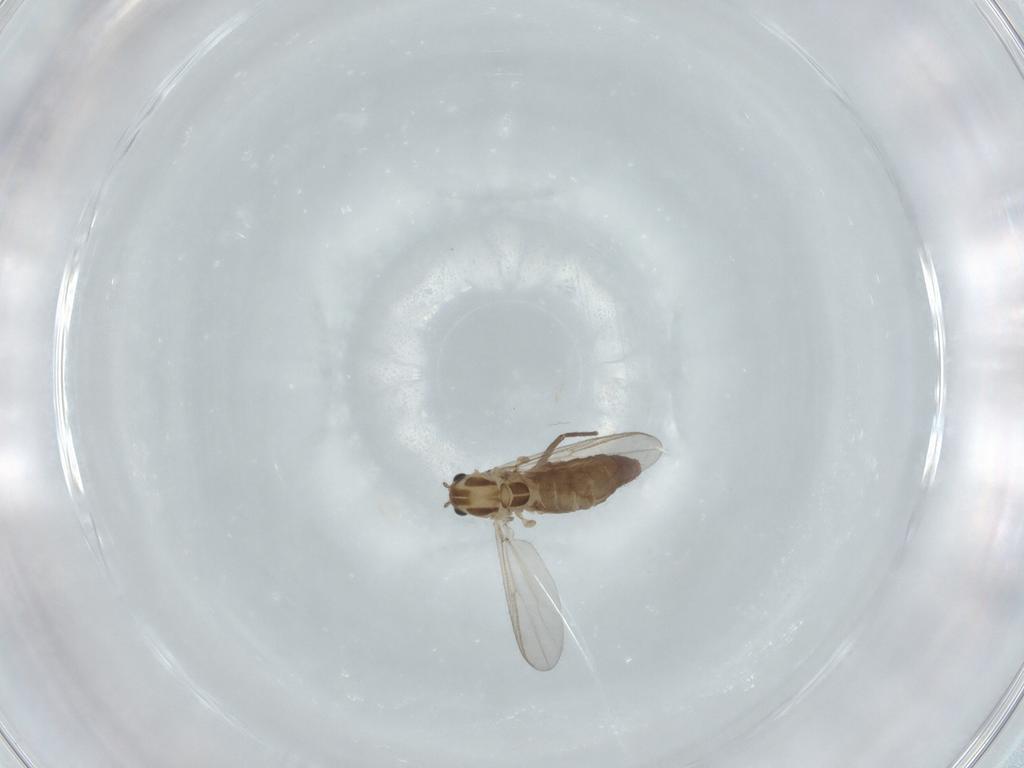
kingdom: Animalia
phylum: Arthropoda
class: Insecta
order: Diptera
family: Chironomidae
